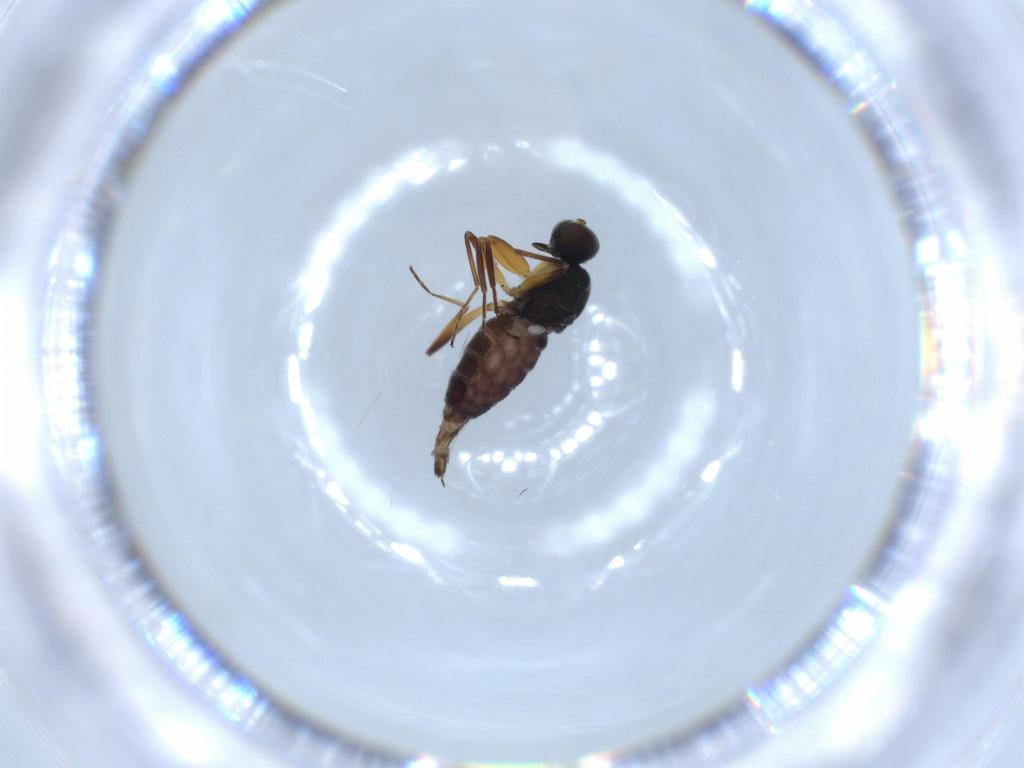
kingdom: Animalia
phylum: Arthropoda
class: Insecta
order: Diptera
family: Hybotidae
